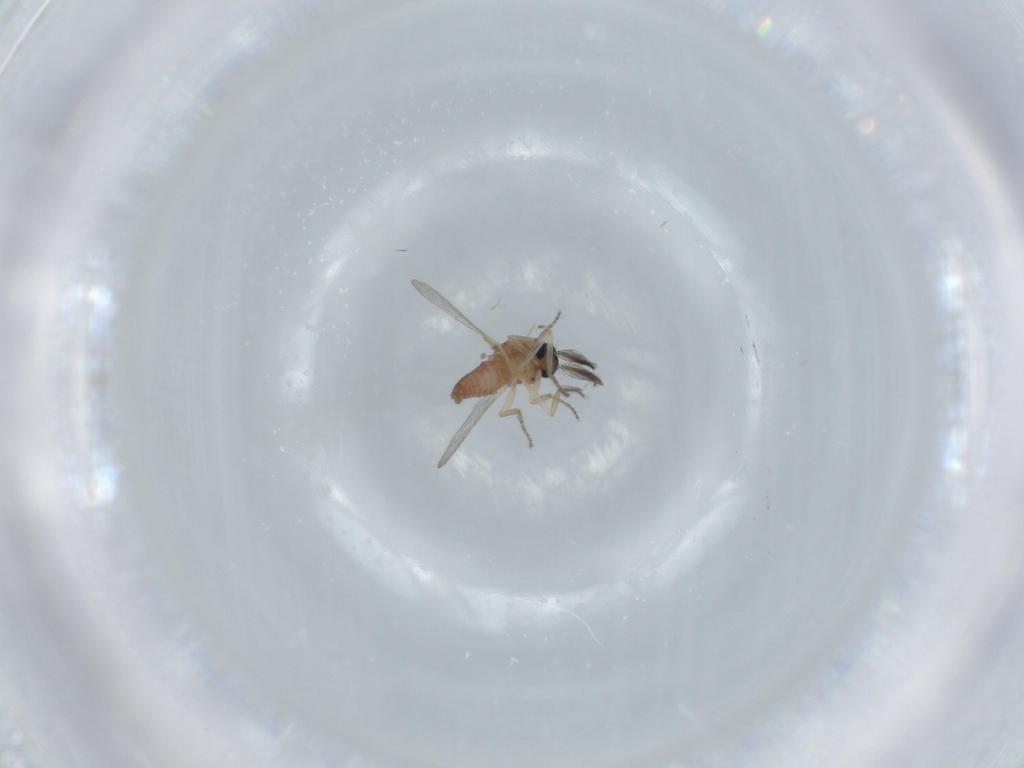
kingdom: Animalia
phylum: Arthropoda
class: Insecta
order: Diptera
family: Ceratopogonidae
